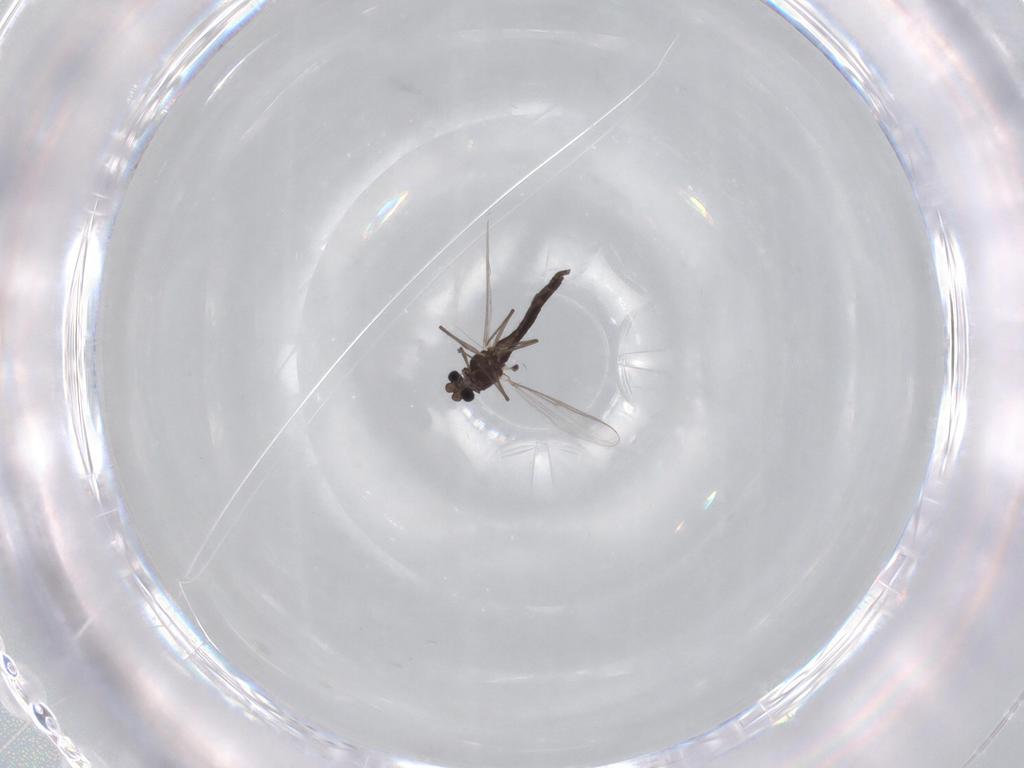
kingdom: Animalia
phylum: Arthropoda
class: Insecta
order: Diptera
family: Chironomidae
